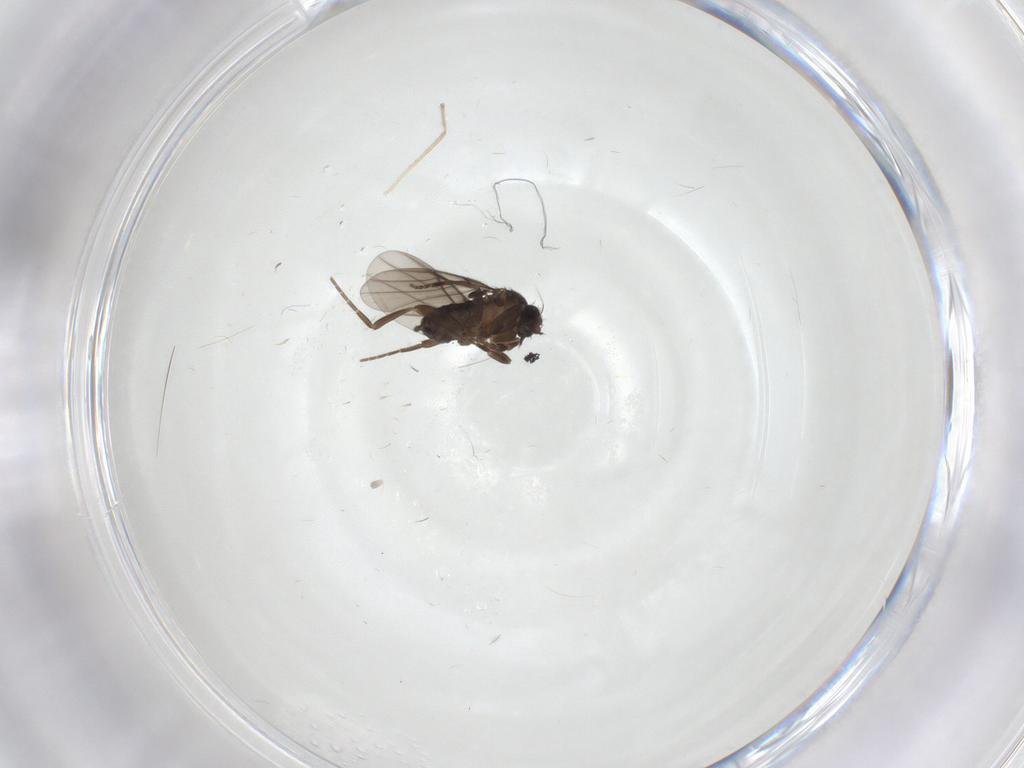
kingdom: Animalia
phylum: Arthropoda
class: Insecta
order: Diptera
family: Phoridae
